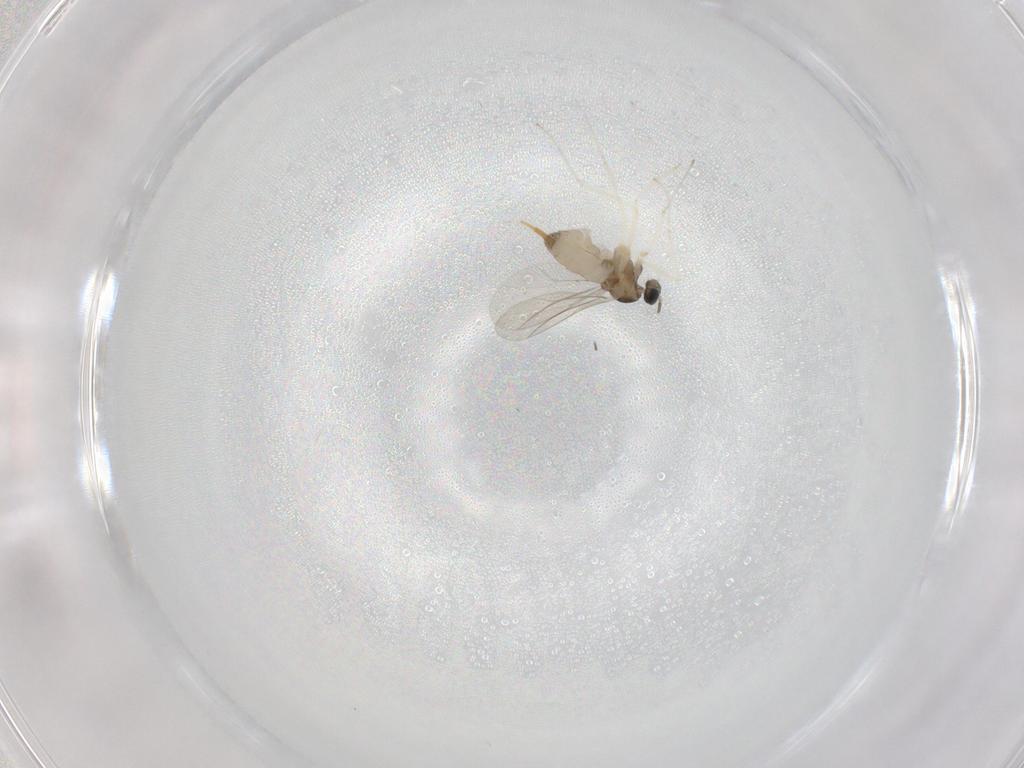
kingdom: Animalia
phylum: Arthropoda
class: Insecta
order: Diptera
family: Cecidomyiidae
